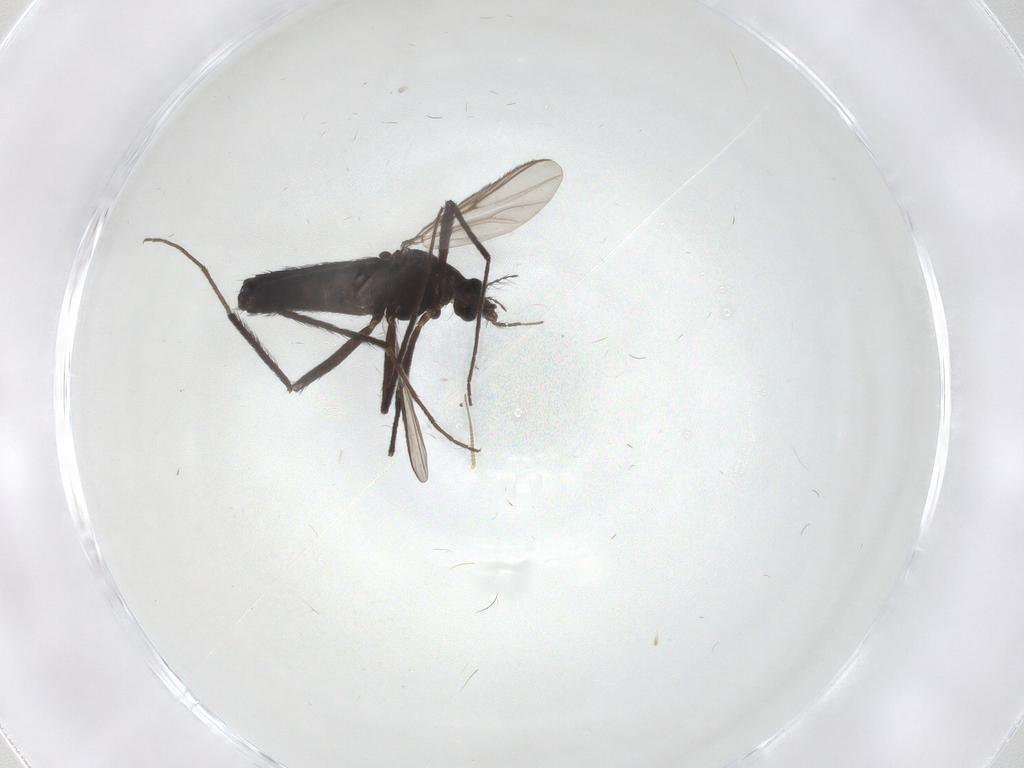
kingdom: Animalia
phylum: Arthropoda
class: Insecta
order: Diptera
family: Chironomidae
